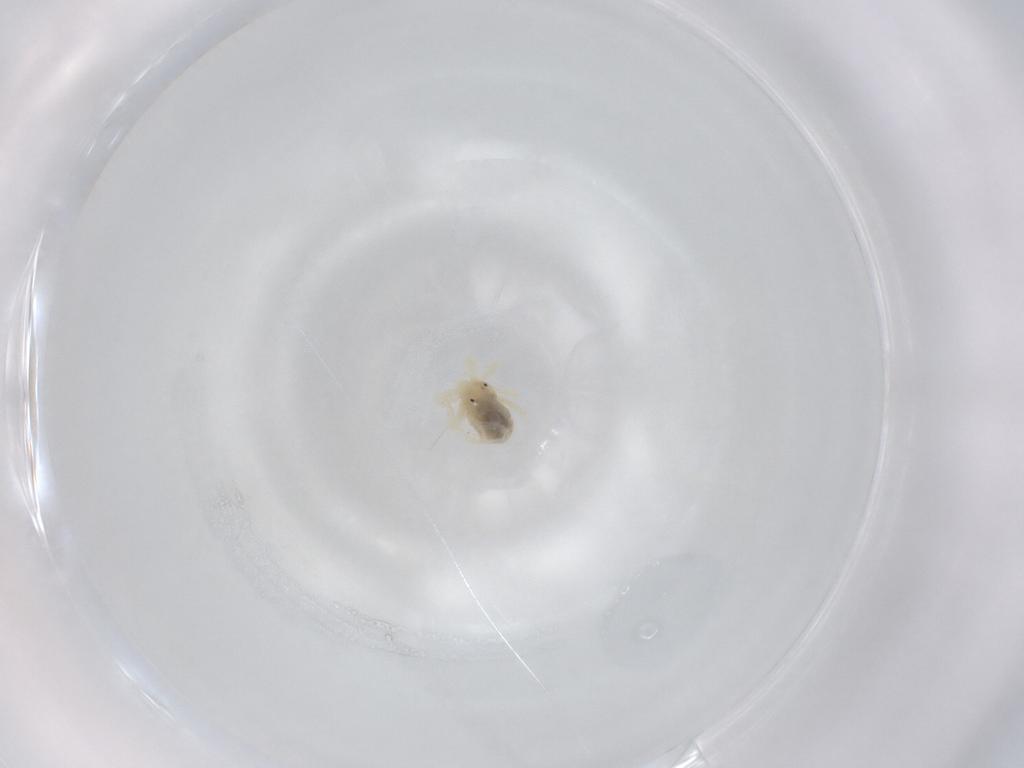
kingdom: Animalia
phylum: Arthropoda
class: Arachnida
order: Trombidiformes
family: Anystidae
